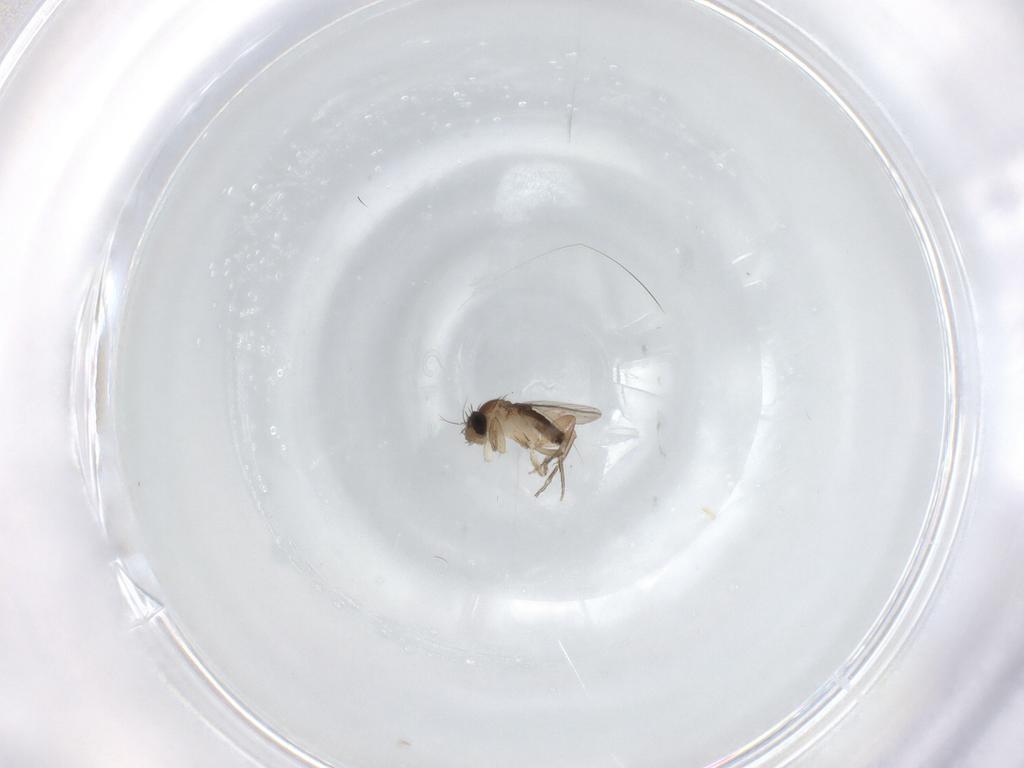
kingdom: Animalia
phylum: Arthropoda
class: Insecta
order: Diptera
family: Phoridae
